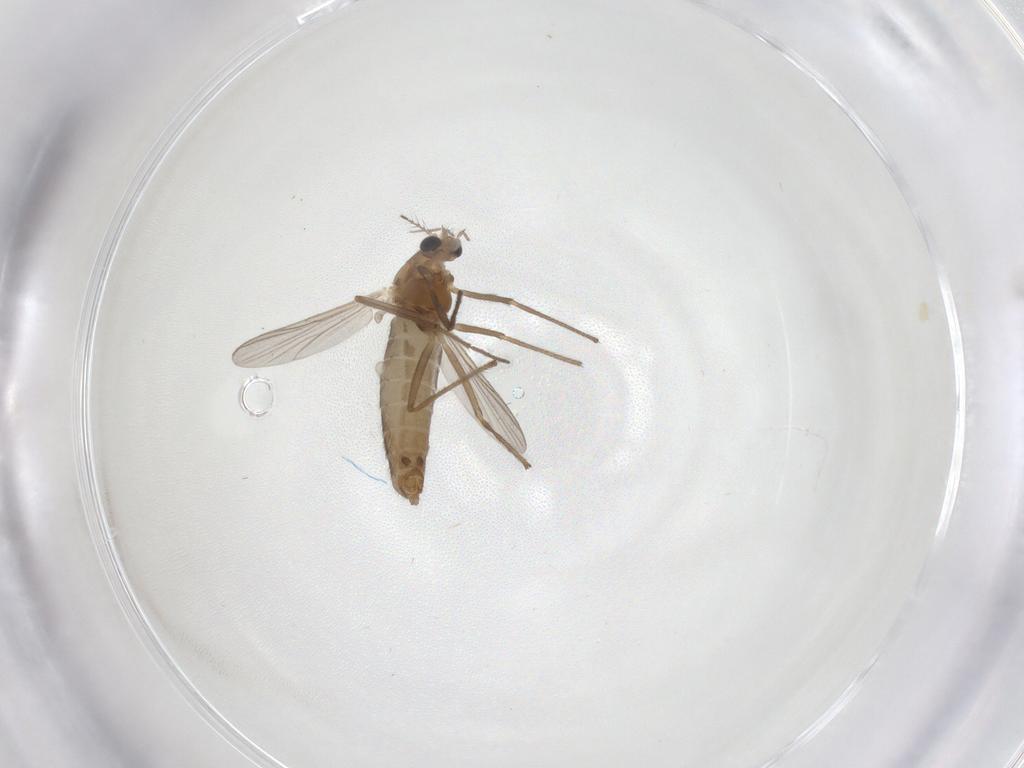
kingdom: Animalia
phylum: Arthropoda
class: Insecta
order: Diptera
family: Chironomidae
